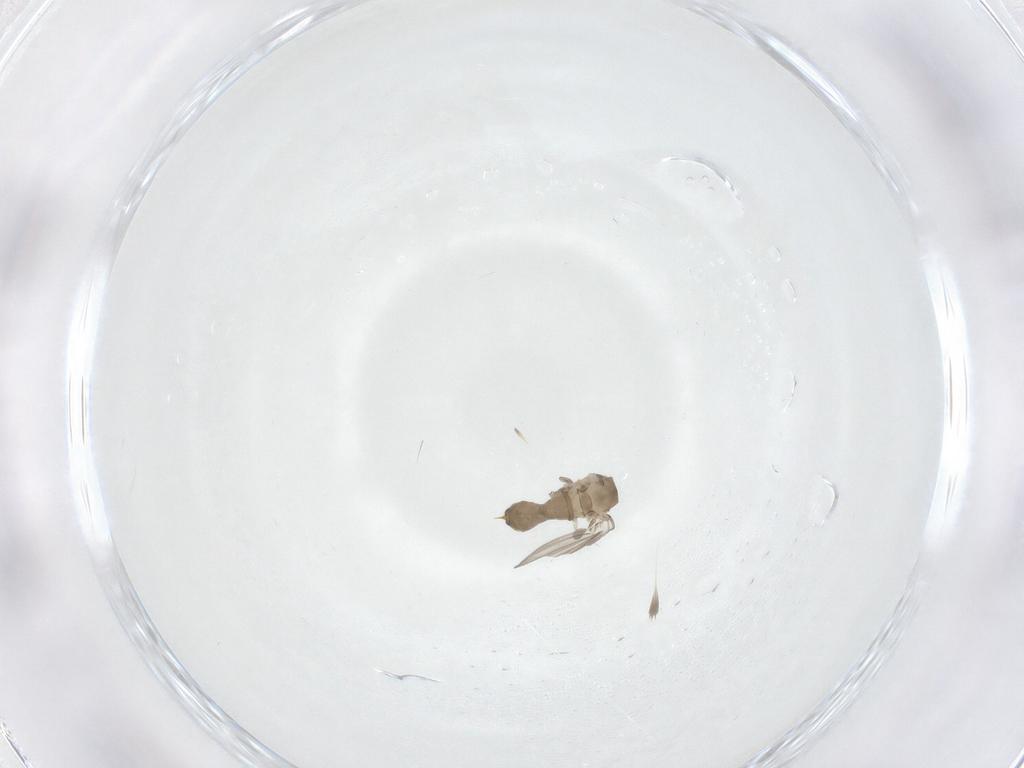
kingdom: Animalia
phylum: Arthropoda
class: Insecta
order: Diptera
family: Psychodidae
